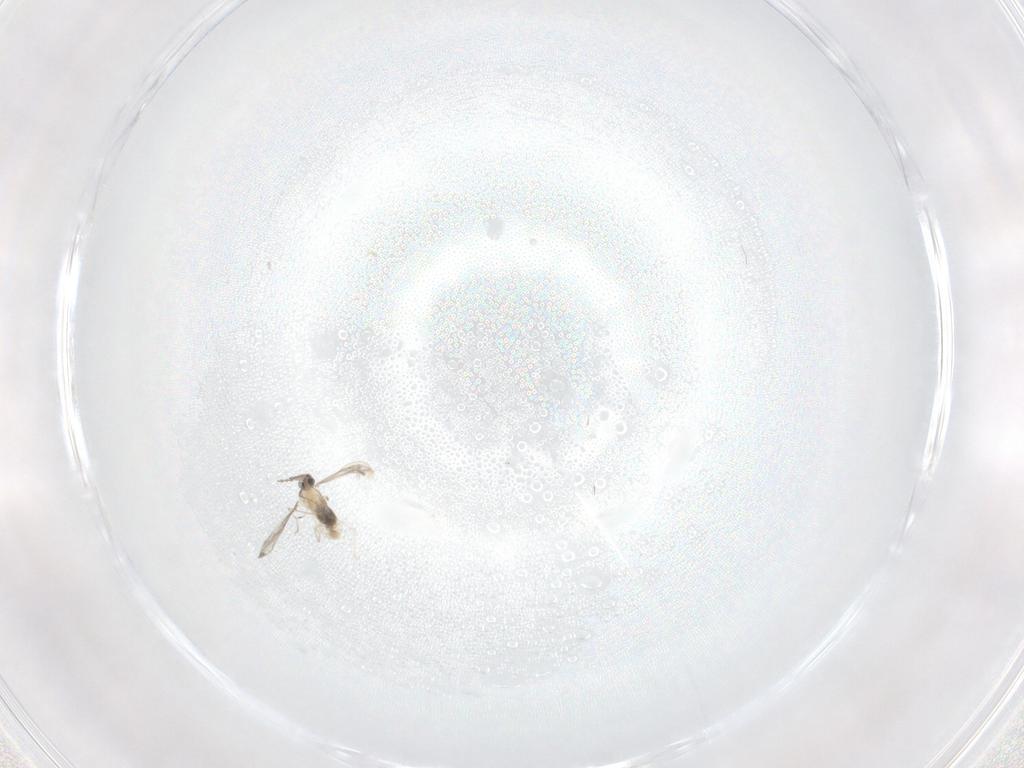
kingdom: Animalia
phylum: Arthropoda
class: Insecta
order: Diptera
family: Cecidomyiidae
